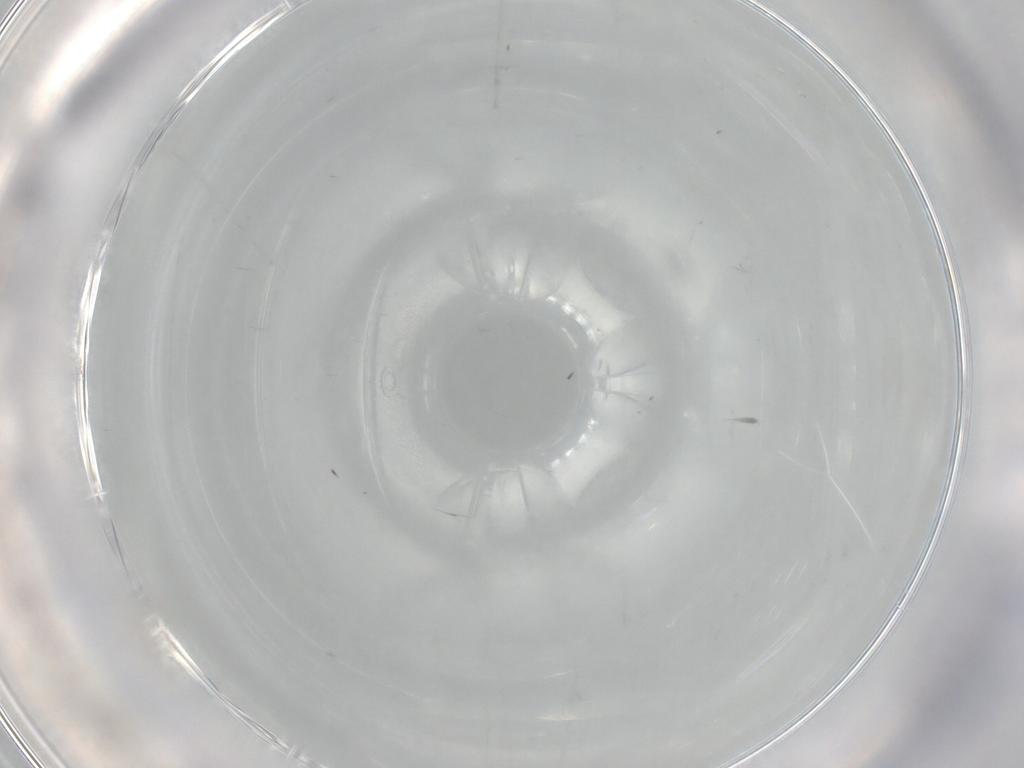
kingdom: Animalia
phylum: Arthropoda
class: Insecta
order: Diptera
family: Cecidomyiidae
